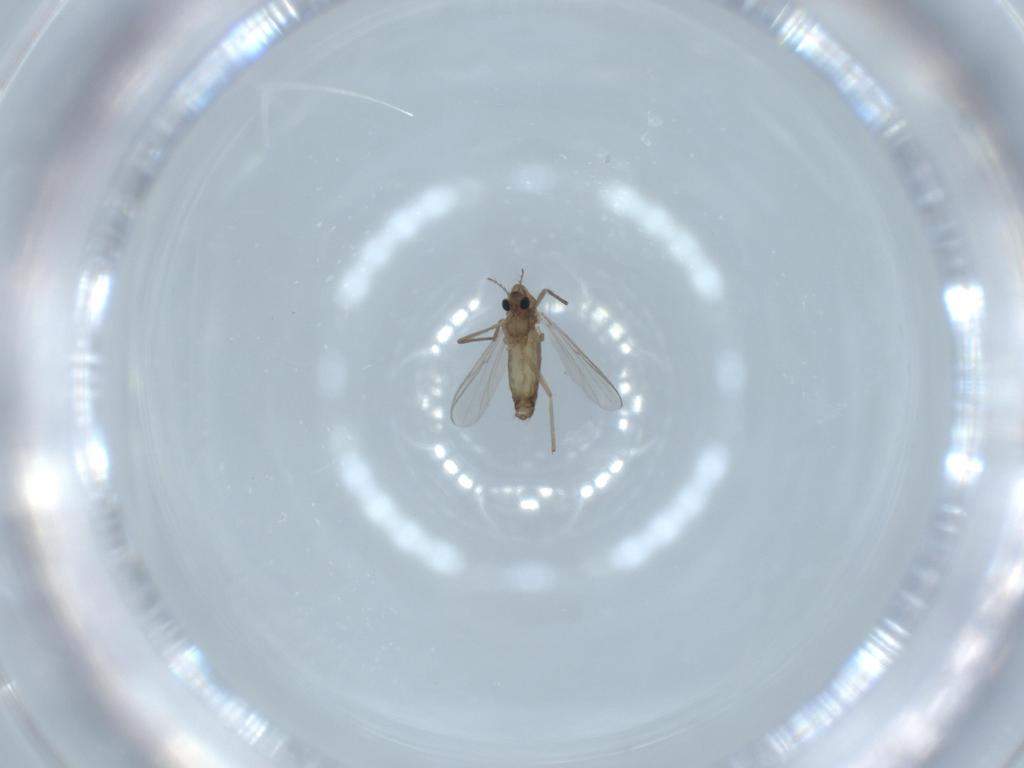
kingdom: Animalia
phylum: Arthropoda
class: Insecta
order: Diptera
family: Chironomidae
